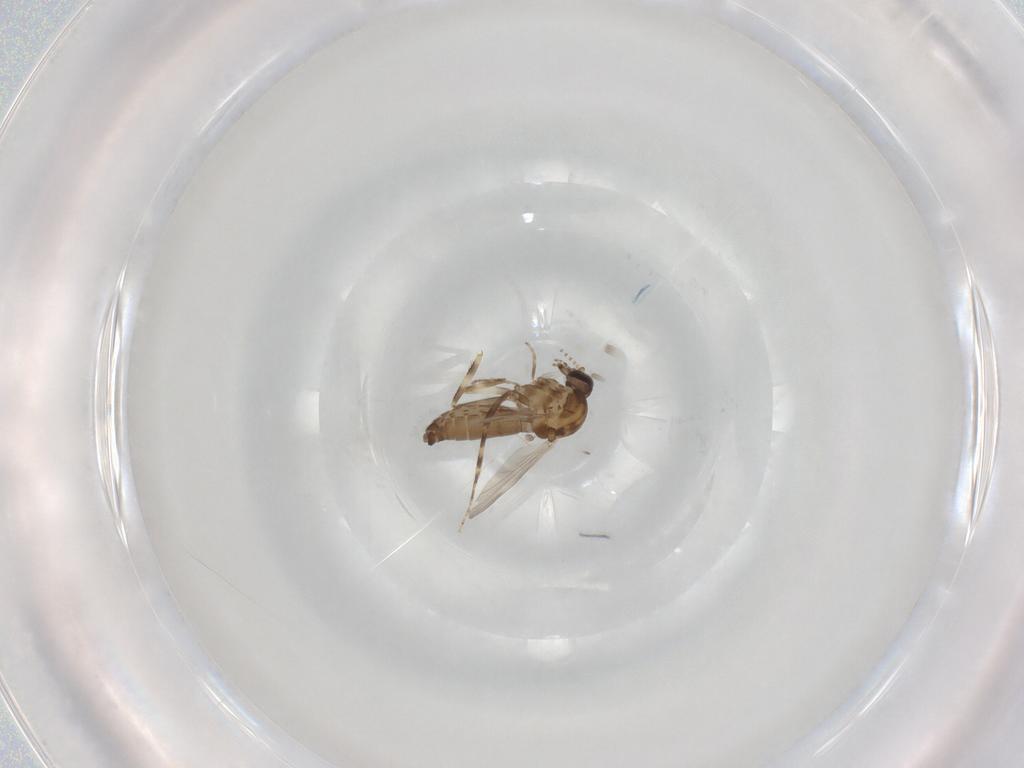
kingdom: Animalia
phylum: Arthropoda
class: Insecta
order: Diptera
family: Ceratopogonidae
